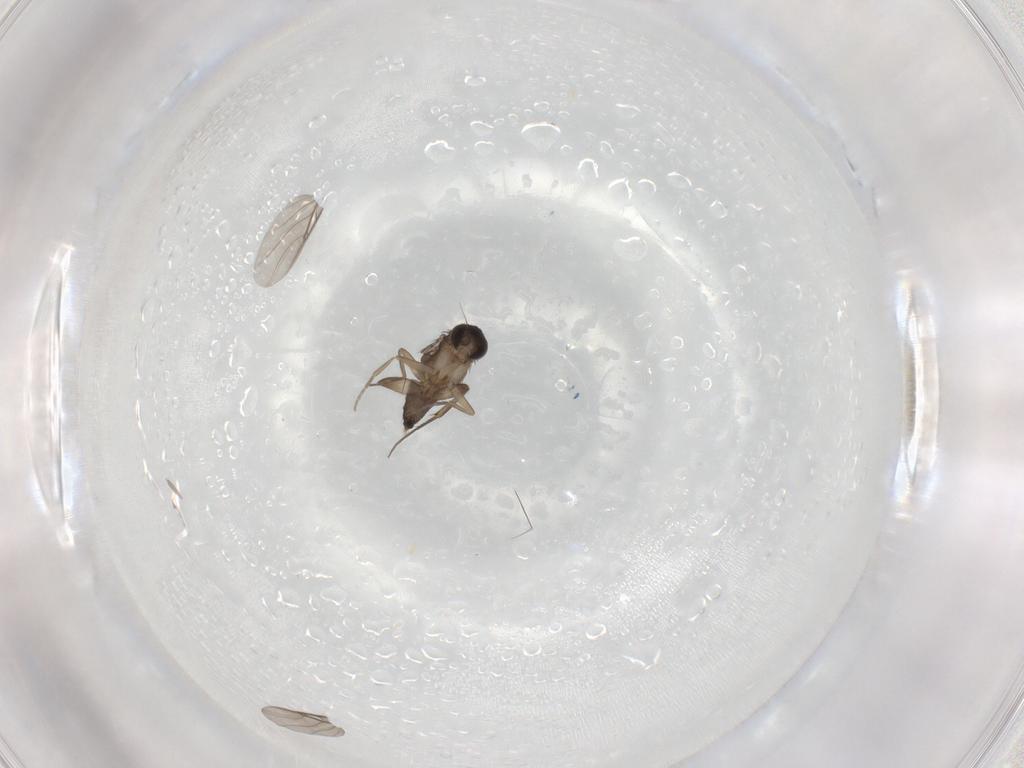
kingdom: Animalia
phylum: Arthropoda
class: Insecta
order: Diptera
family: Phoridae
